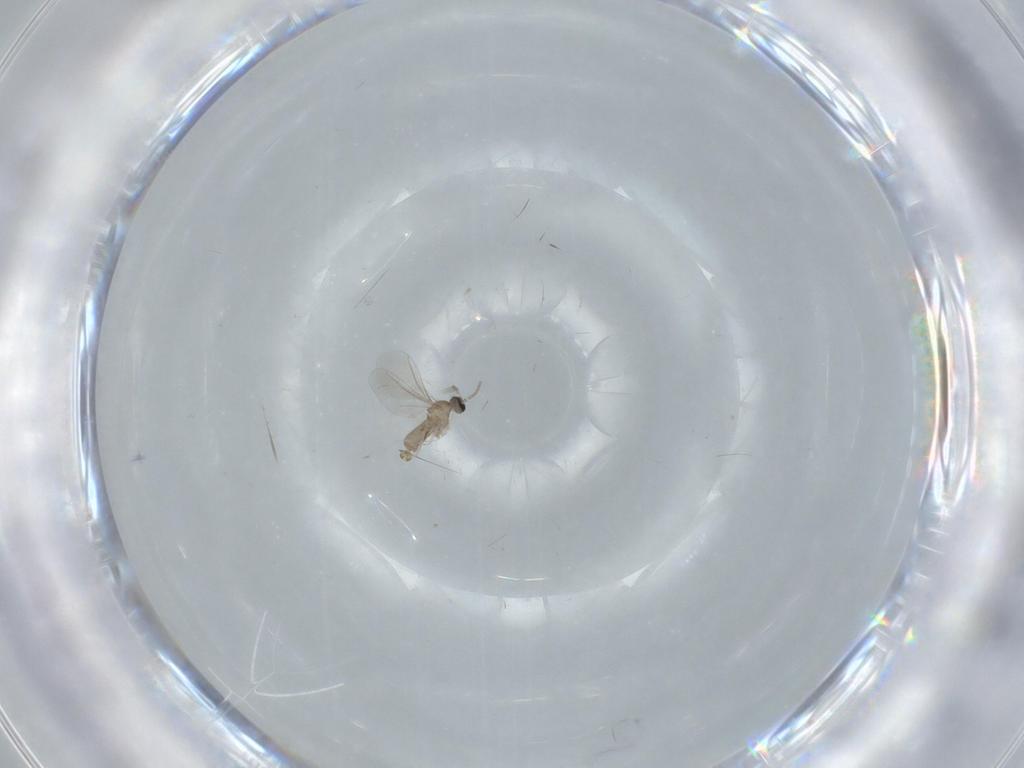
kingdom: Animalia
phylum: Arthropoda
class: Insecta
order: Diptera
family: Cecidomyiidae
